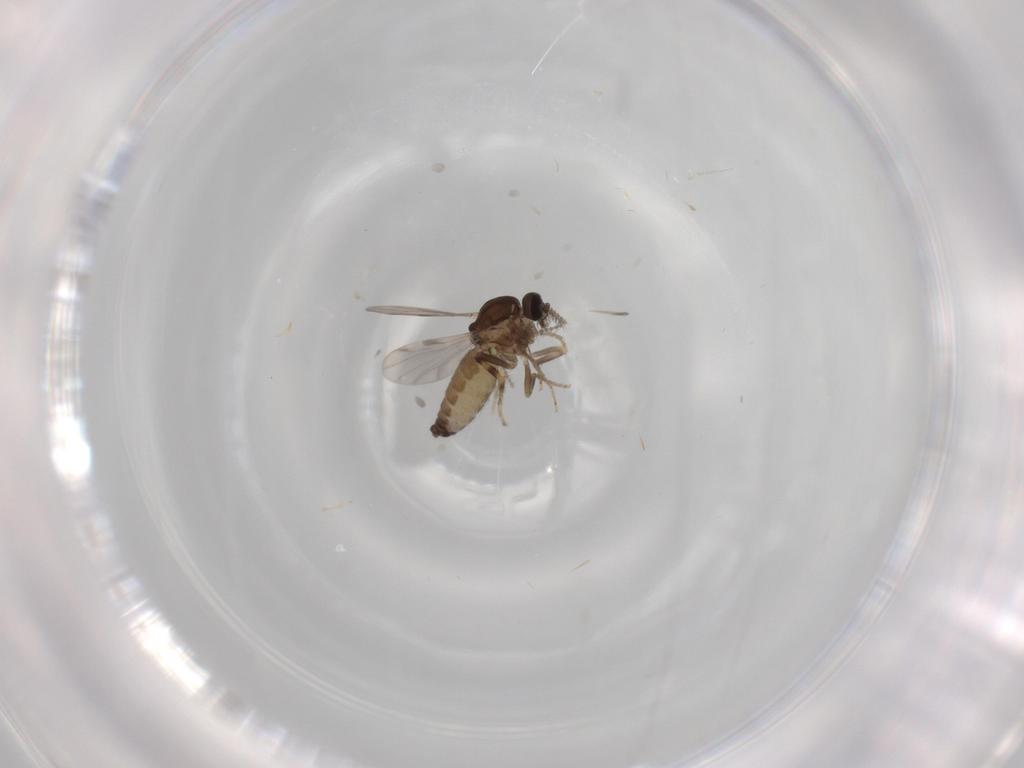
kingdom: Animalia
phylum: Arthropoda
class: Insecta
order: Diptera
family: Ceratopogonidae
